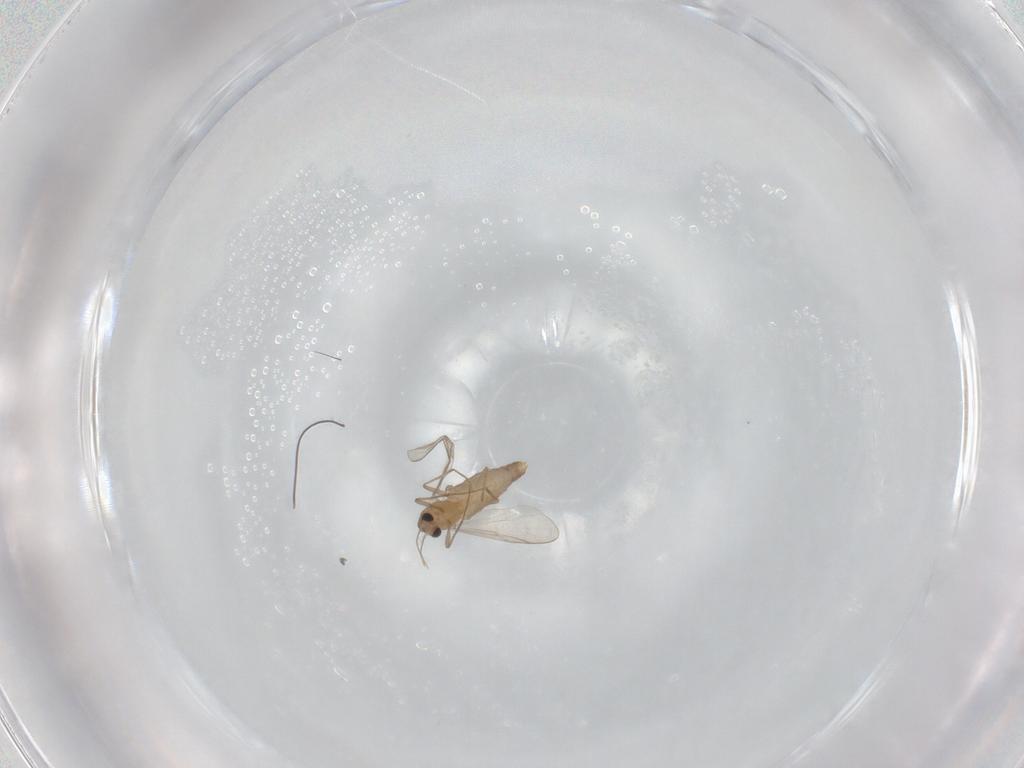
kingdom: Animalia
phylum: Arthropoda
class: Insecta
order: Diptera
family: Chironomidae
